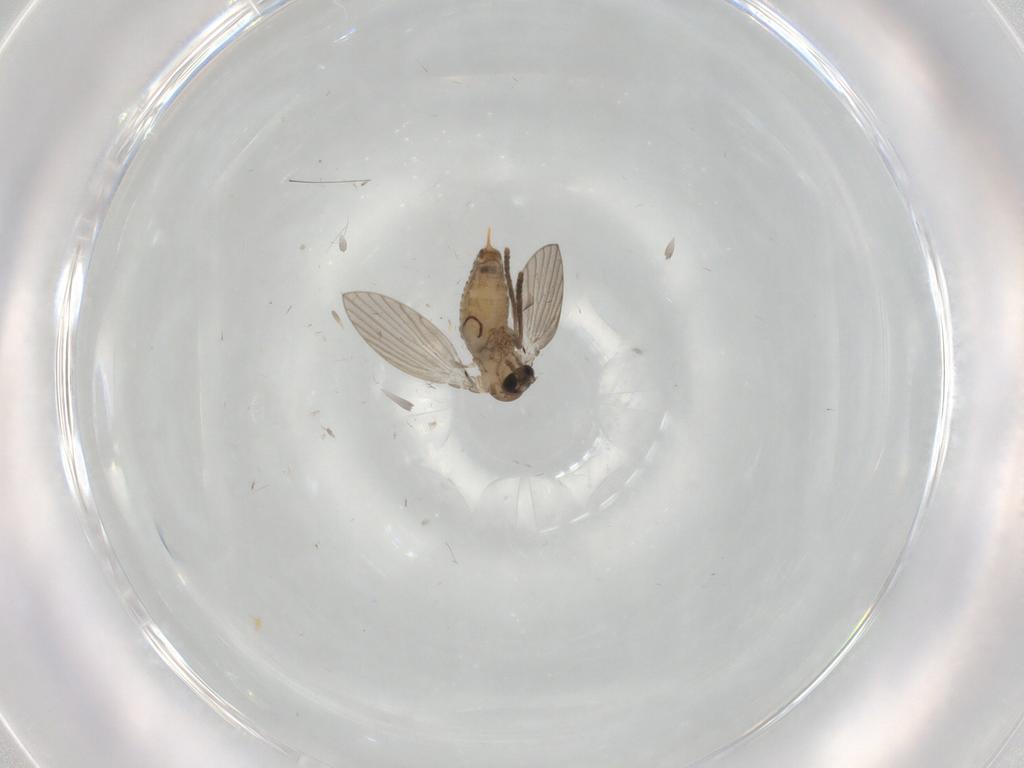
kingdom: Animalia
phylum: Arthropoda
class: Insecta
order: Diptera
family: Psychodidae
